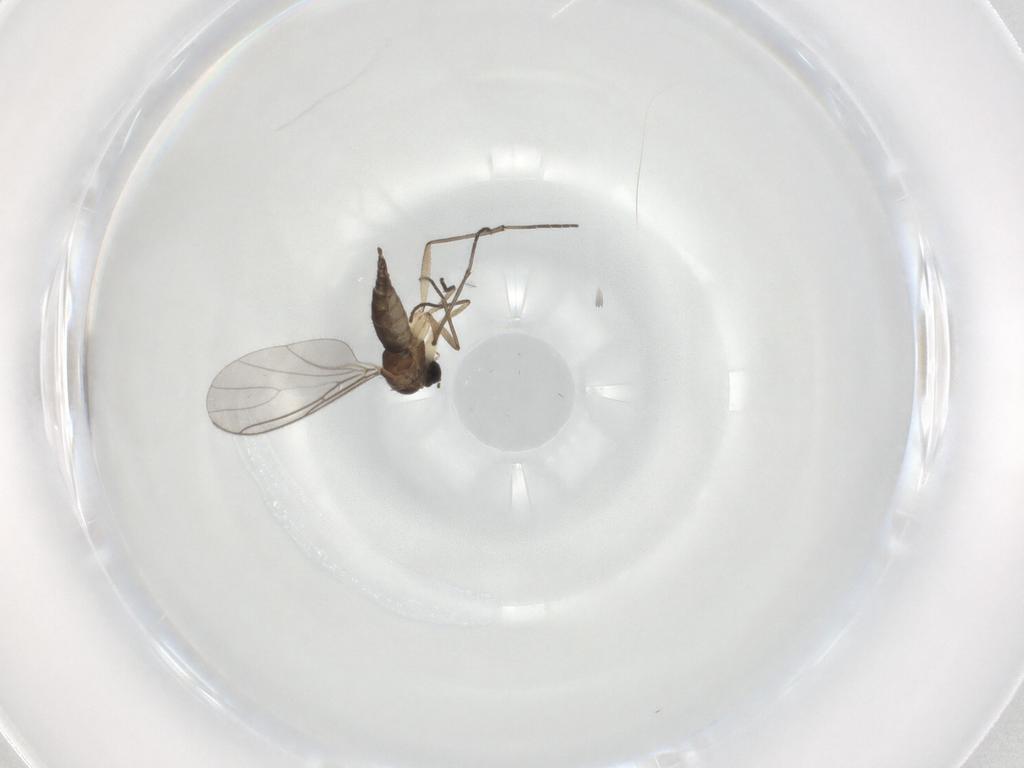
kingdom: Animalia
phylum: Arthropoda
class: Insecta
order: Diptera
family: Sciaridae
